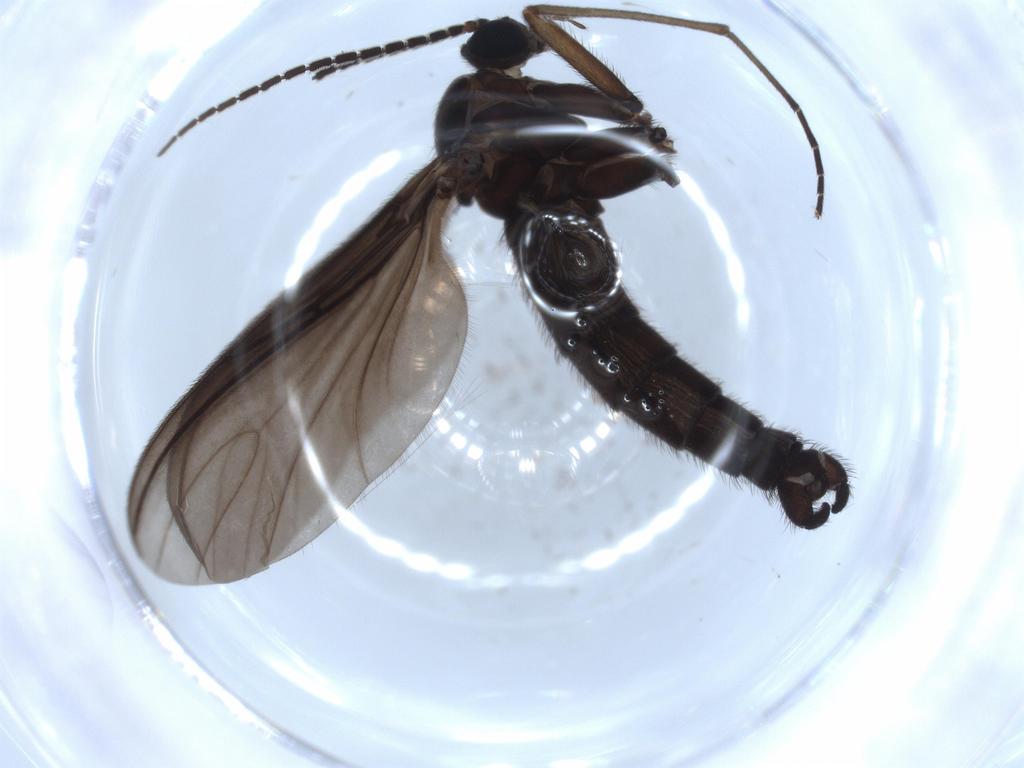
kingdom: Animalia
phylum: Arthropoda
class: Insecta
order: Diptera
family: Sciaridae
